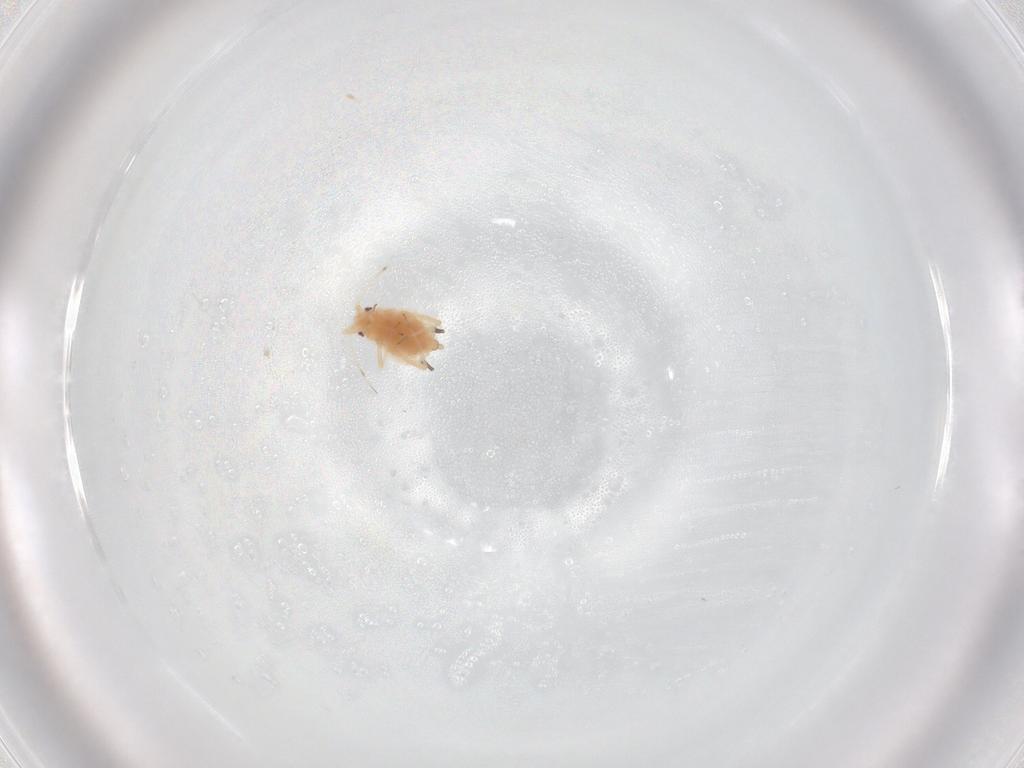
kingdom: Animalia
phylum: Arthropoda
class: Insecta
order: Hemiptera
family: Aphididae
